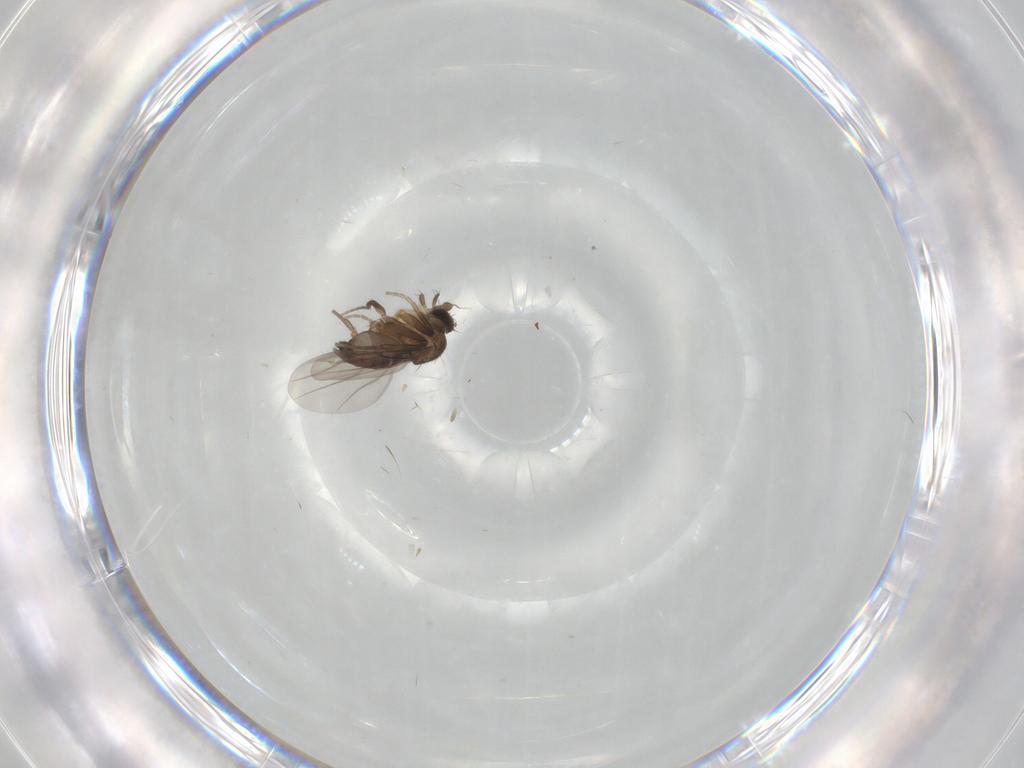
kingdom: Animalia
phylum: Arthropoda
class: Insecta
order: Diptera
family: Phoridae
